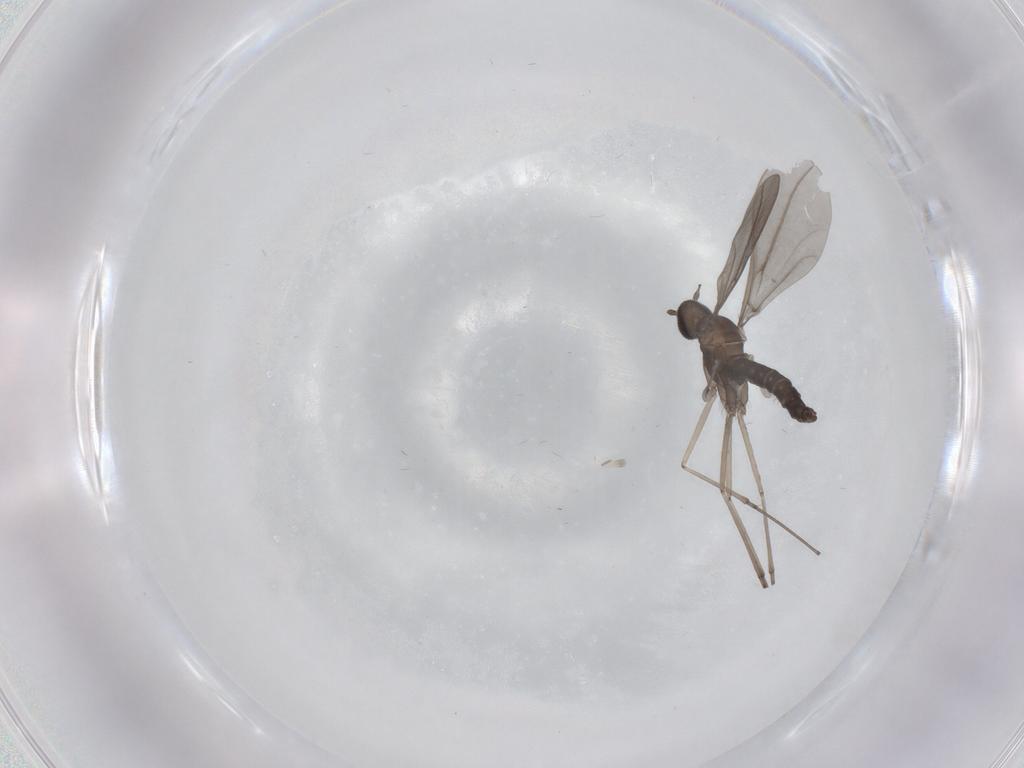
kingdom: Animalia
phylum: Arthropoda
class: Insecta
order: Diptera
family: Cecidomyiidae
